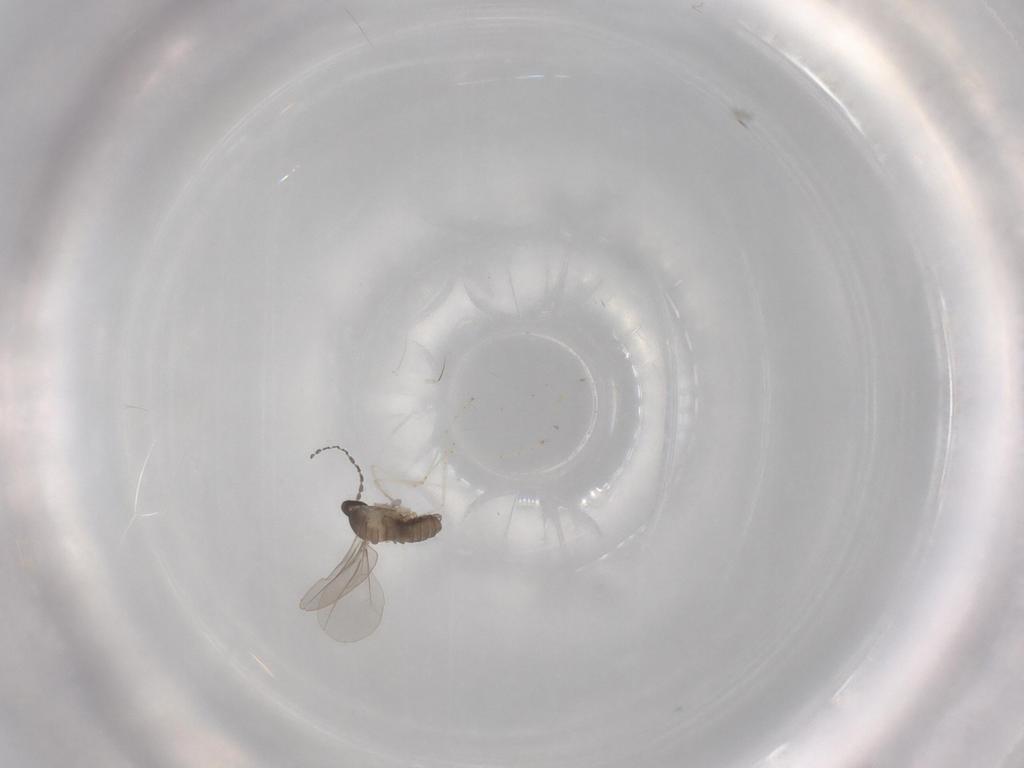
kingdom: Animalia
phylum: Arthropoda
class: Insecta
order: Diptera
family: Cecidomyiidae
